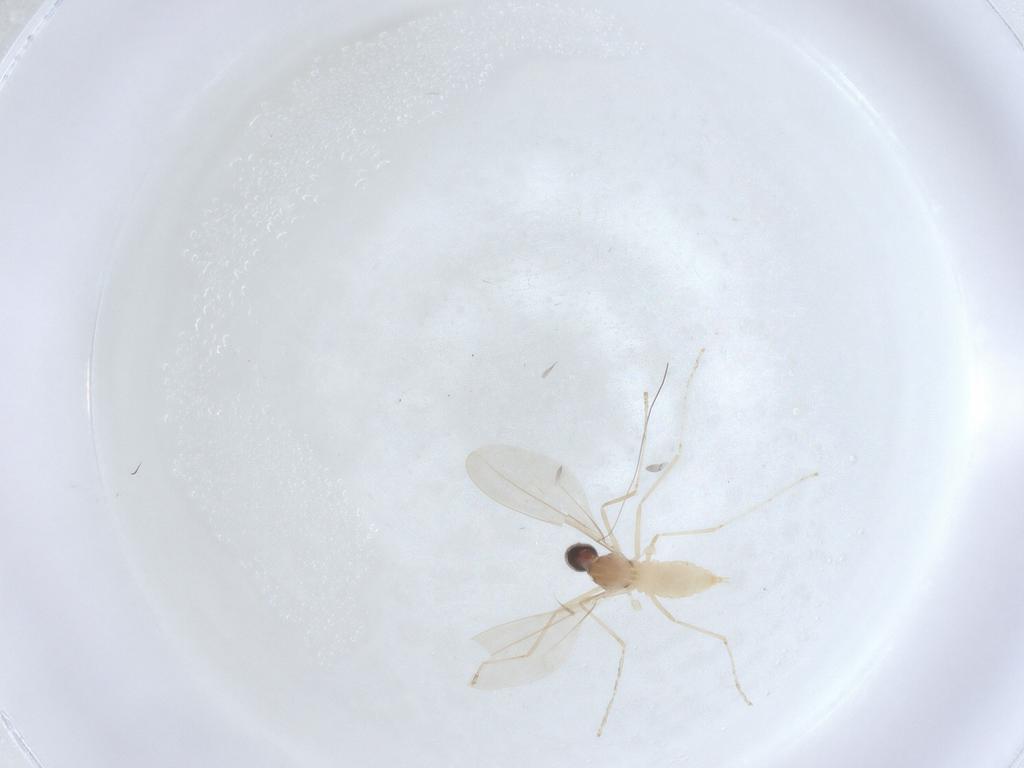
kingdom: Animalia
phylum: Arthropoda
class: Insecta
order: Diptera
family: Cecidomyiidae
